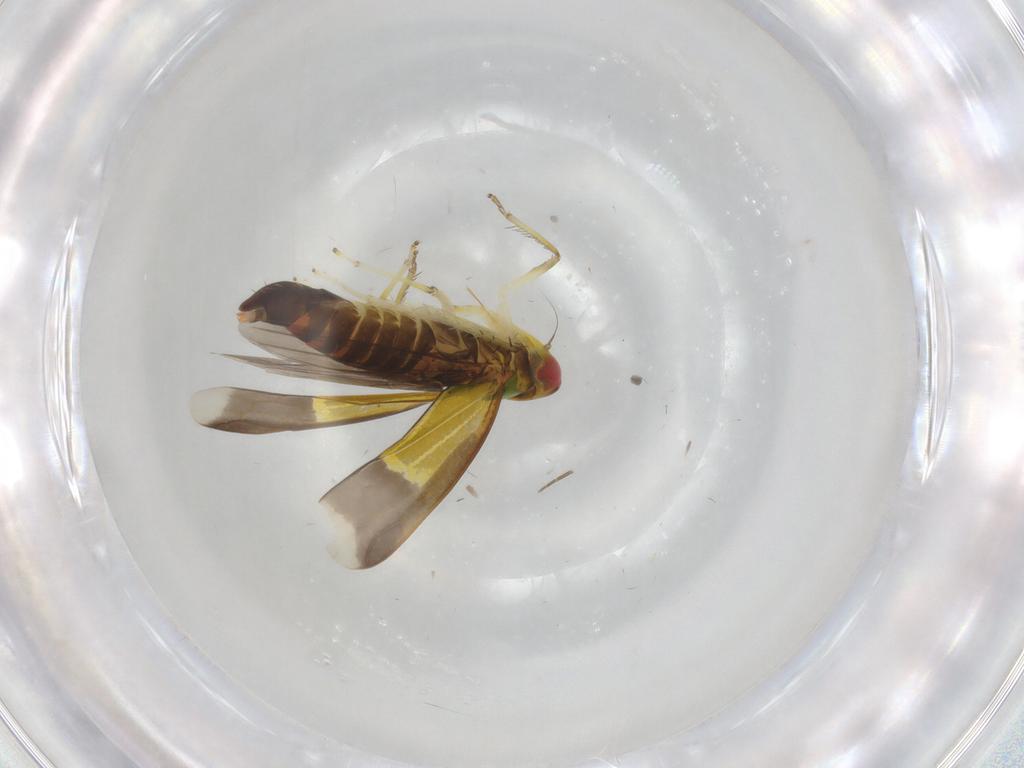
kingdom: Animalia
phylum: Arthropoda
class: Insecta
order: Hemiptera
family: Cicadellidae
